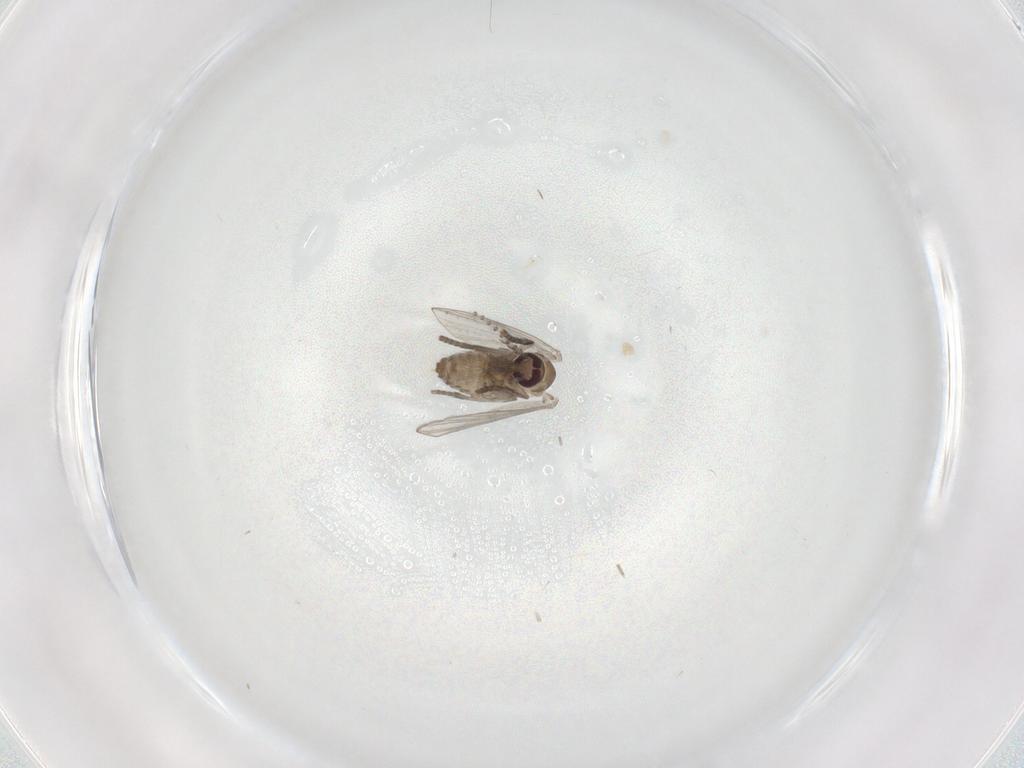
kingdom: Animalia
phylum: Arthropoda
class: Insecta
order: Diptera
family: Psychodidae
